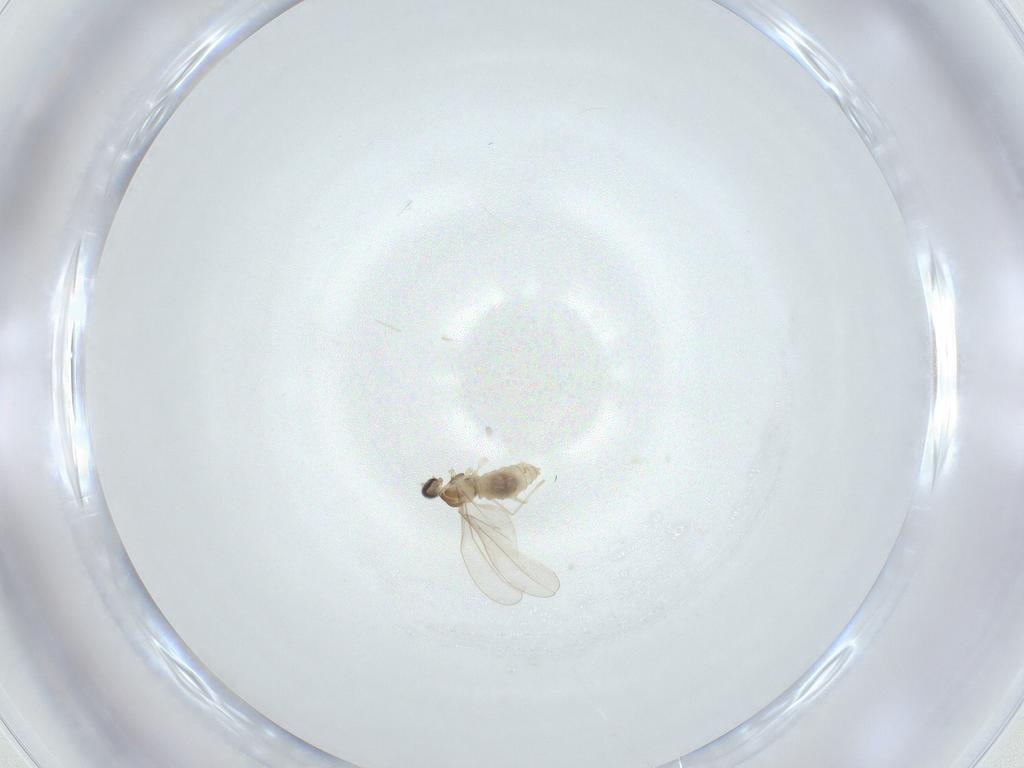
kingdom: Animalia
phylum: Arthropoda
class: Insecta
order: Diptera
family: Cecidomyiidae
